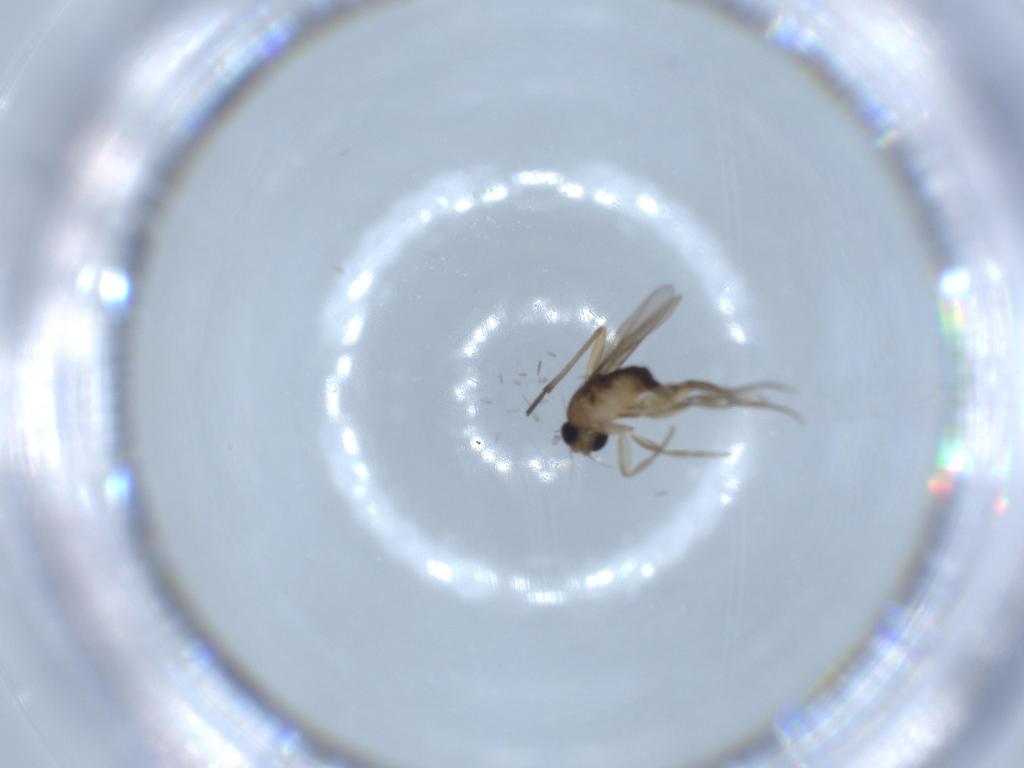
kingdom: Animalia
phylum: Arthropoda
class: Insecta
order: Diptera
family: Phoridae
